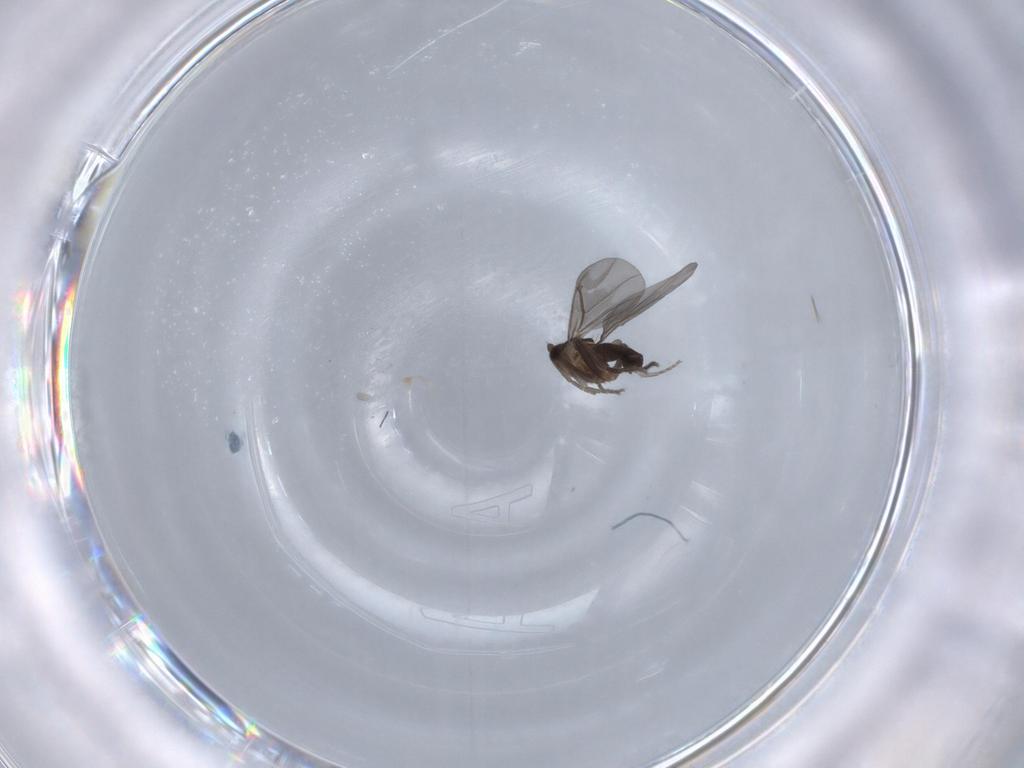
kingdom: Animalia
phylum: Arthropoda
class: Insecta
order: Diptera
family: Phoridae
